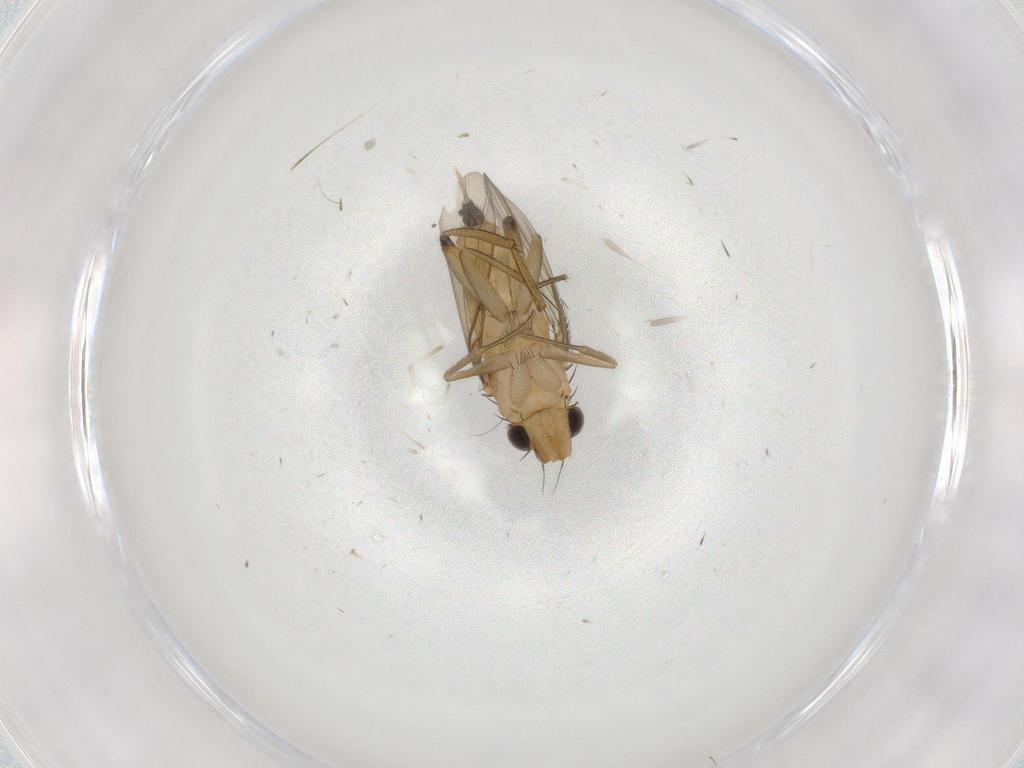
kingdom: Animalia
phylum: Arthropoda
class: Insecta
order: Diptera
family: Phoridae
